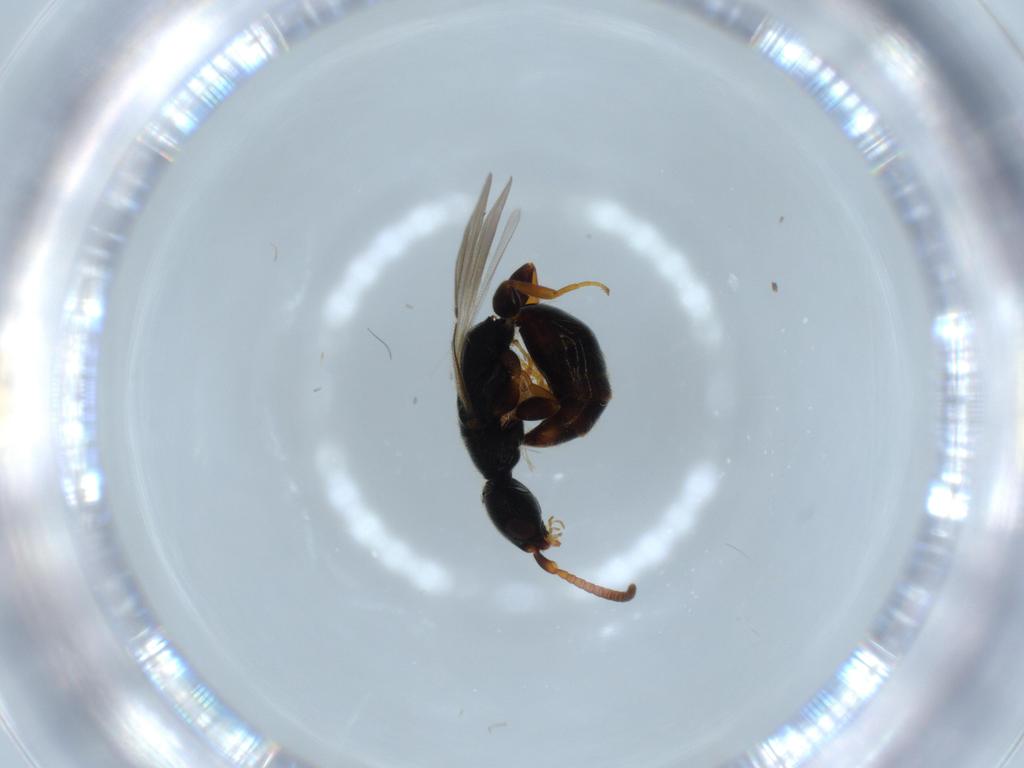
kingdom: Animalia
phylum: Arthropoda
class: Insecta
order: Hymenoptera
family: Bethylidae
